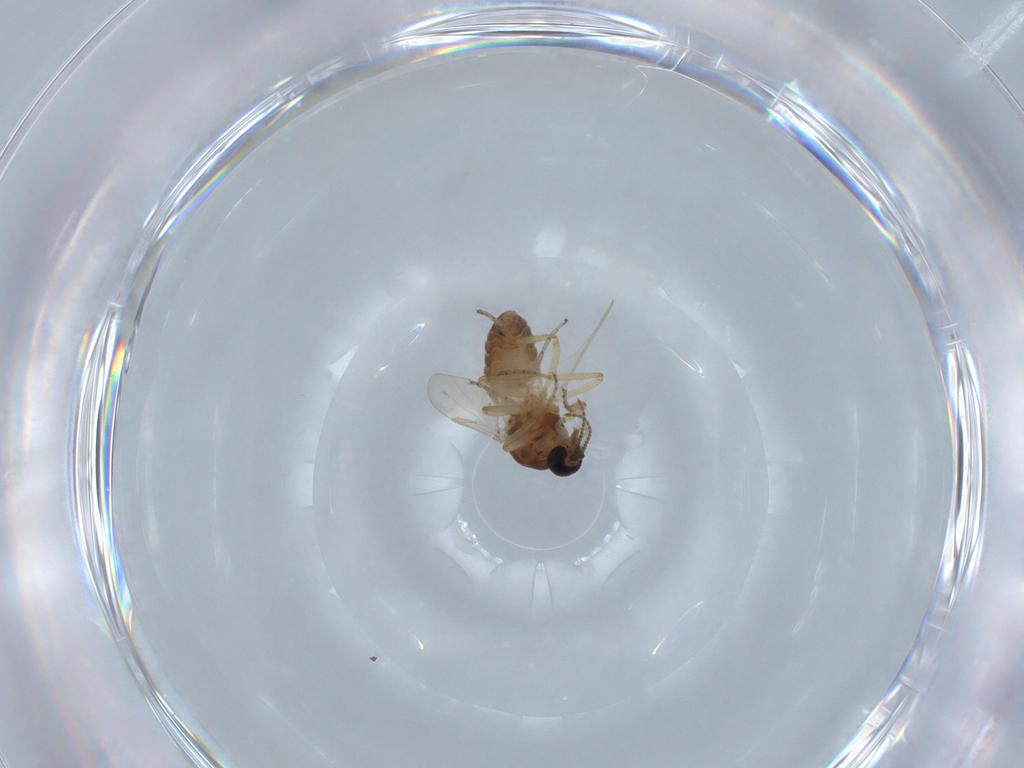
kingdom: Animalia
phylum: Arthropoda
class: Insecta
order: Diptera
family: Ceratopogonidae
